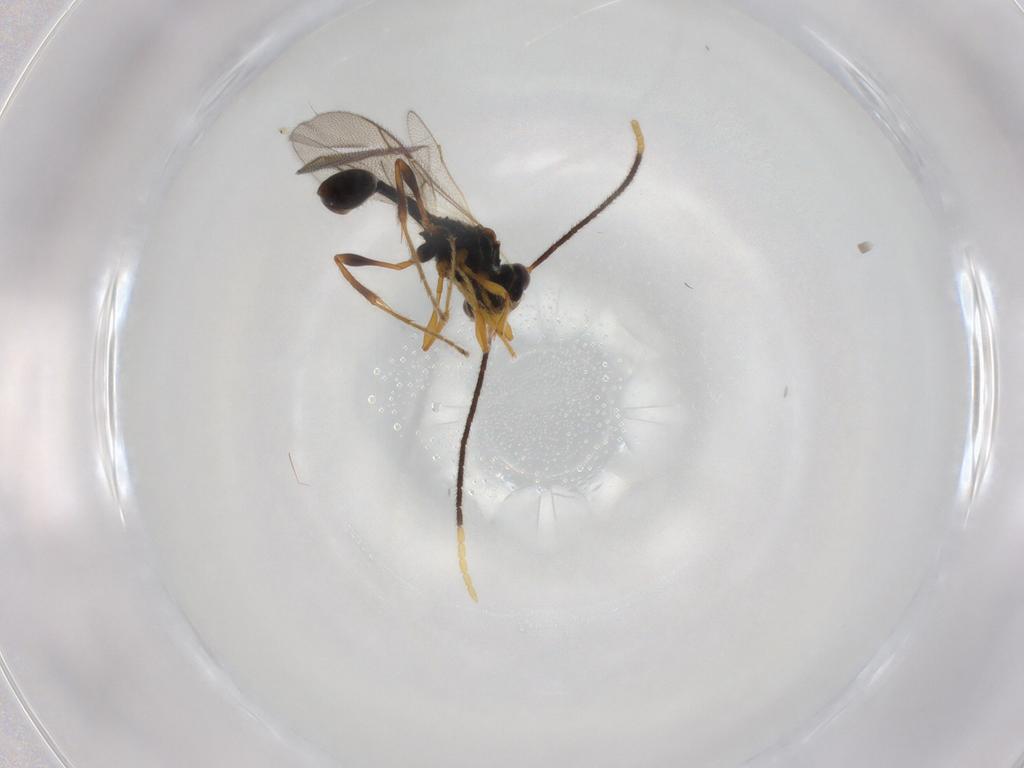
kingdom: Animalia
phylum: Arthropoda
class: Insecta
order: Hymenoptera
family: Diapriidae
